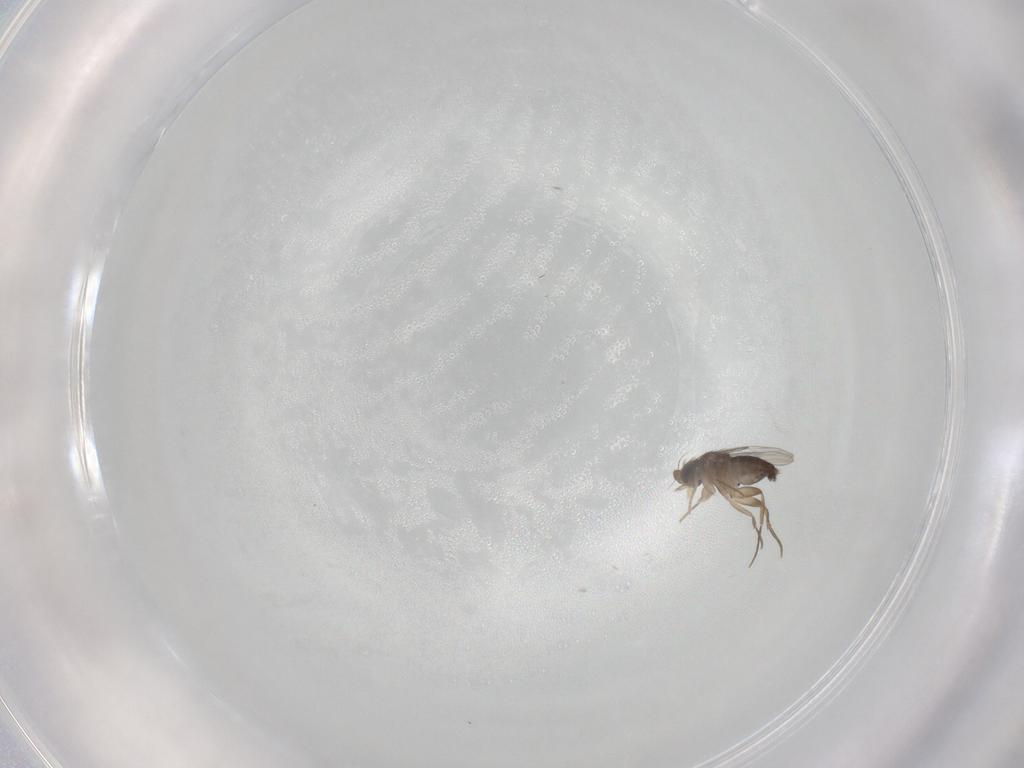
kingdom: Animalia
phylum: Arthropoda
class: Insecta
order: Diptera
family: Phoridae
